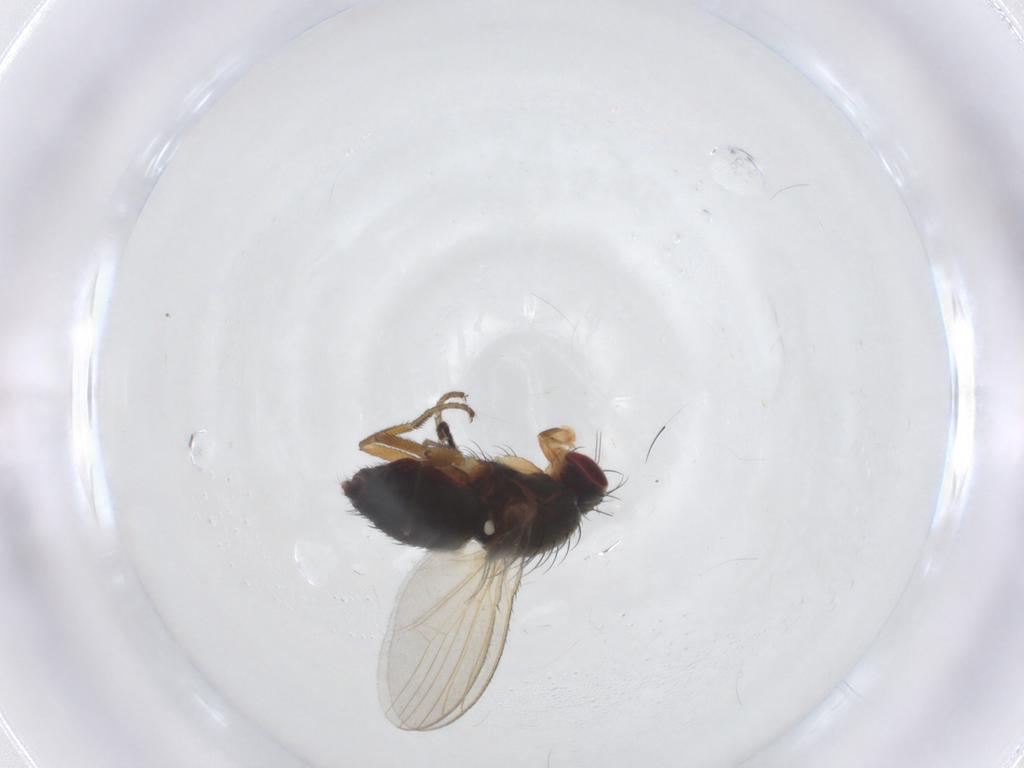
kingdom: Animalia
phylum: Arthropoda
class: Insecta
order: Diptera
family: Heleomyzidae
